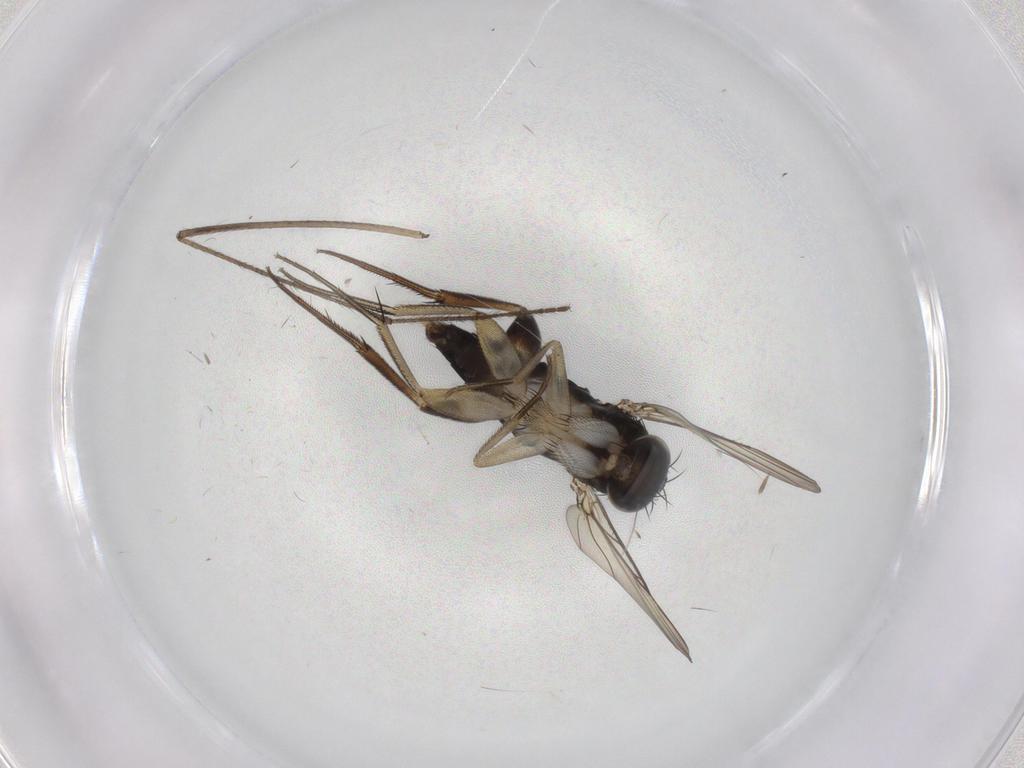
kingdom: Animalia
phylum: Arthropoda
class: Insecta
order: Diptera
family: Phoridae
